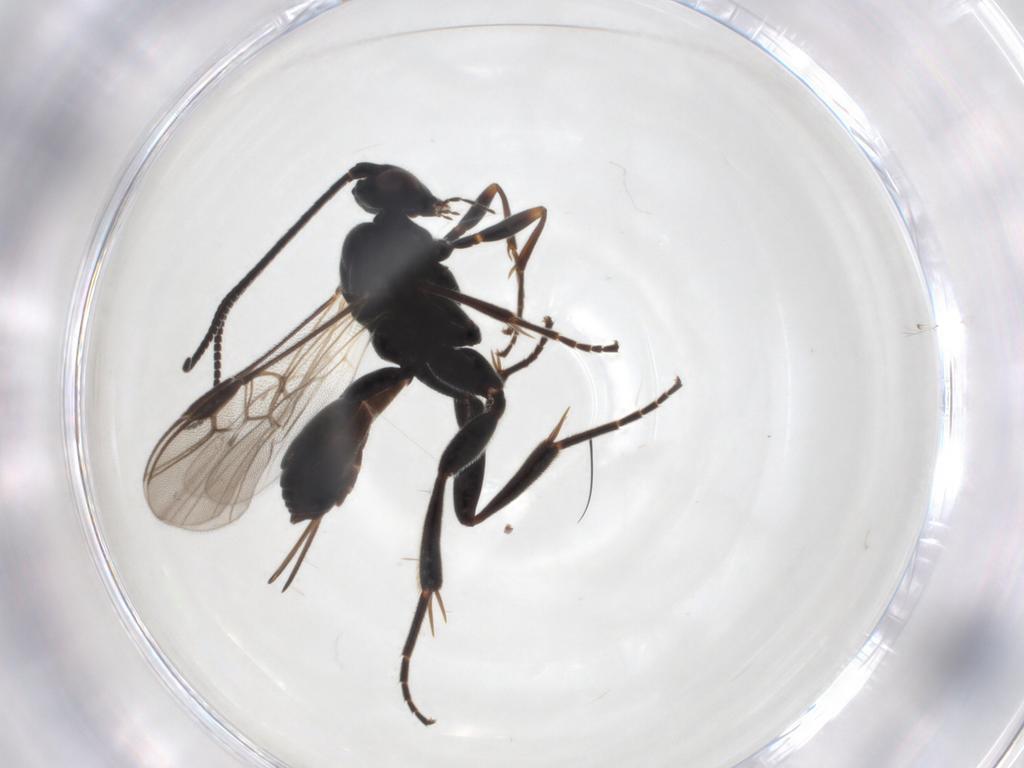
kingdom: Animalia
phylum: Arthropoda
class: Insecta
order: Hymenoptera
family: Braconidae
